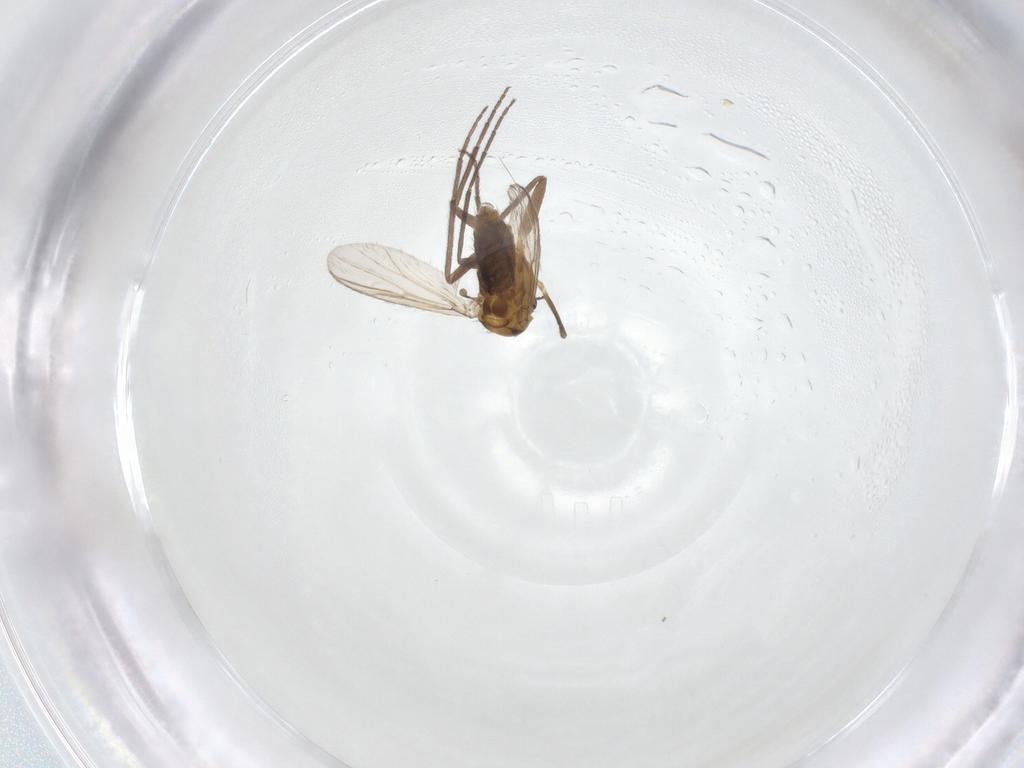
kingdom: Animalia
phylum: Arthropoda
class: Insecta
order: Diptera
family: Chironomidae
